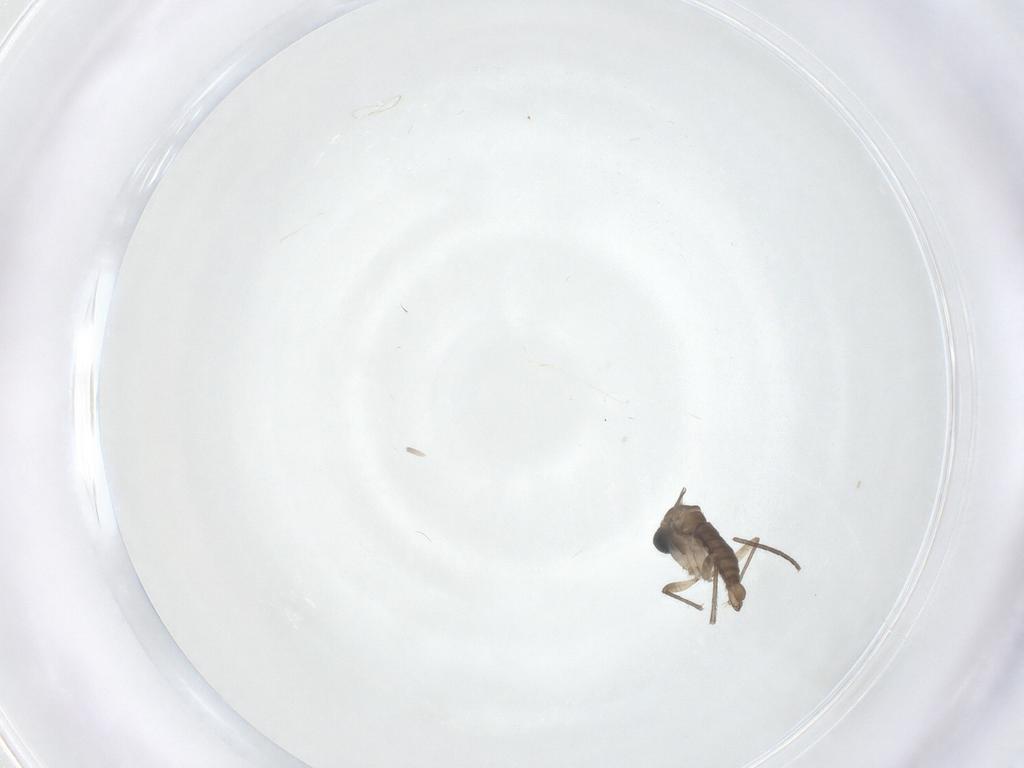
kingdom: Animalia
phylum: Arthropoda
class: Insecta
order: Diptera
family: Sciaridae
